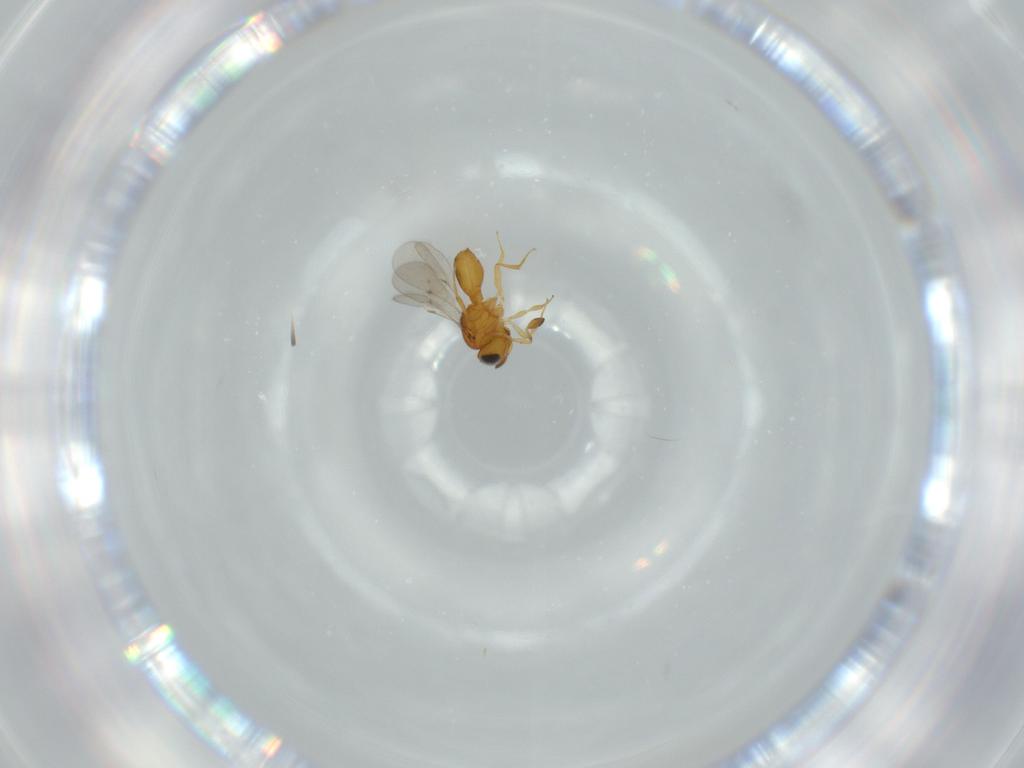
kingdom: Animalia
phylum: Arthropoda
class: Insecta
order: Hymenoptera
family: Scelionidae
